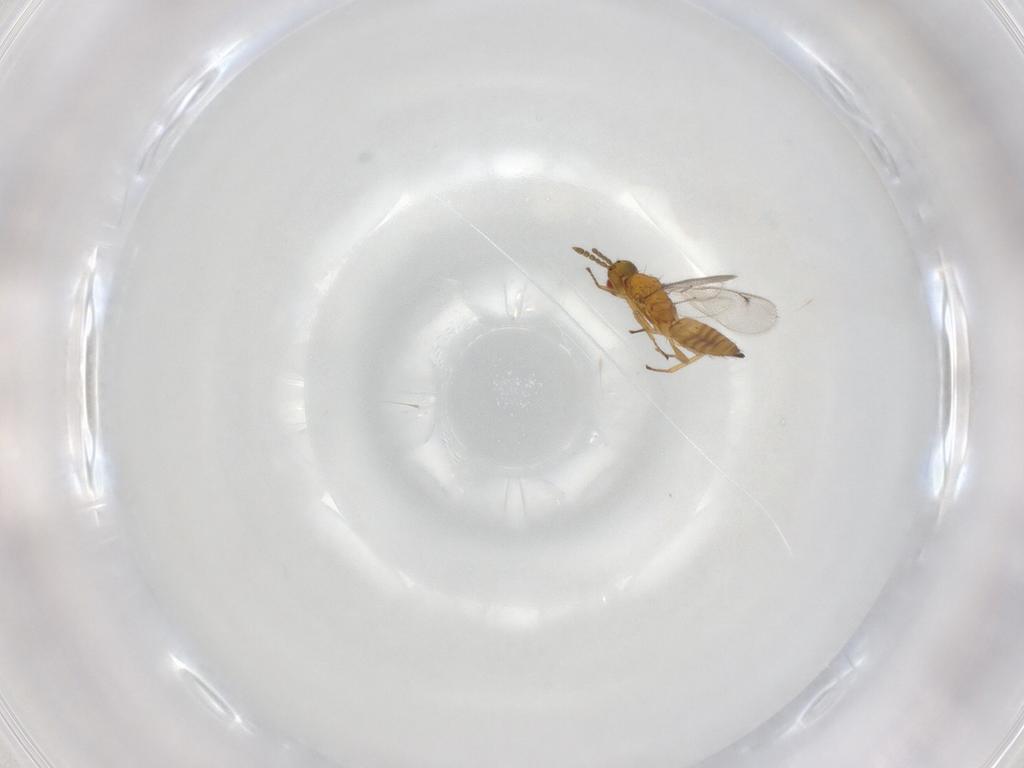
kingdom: Animalia
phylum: Arthropoda
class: Insecta
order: Hymenoptera
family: Eulophidae
